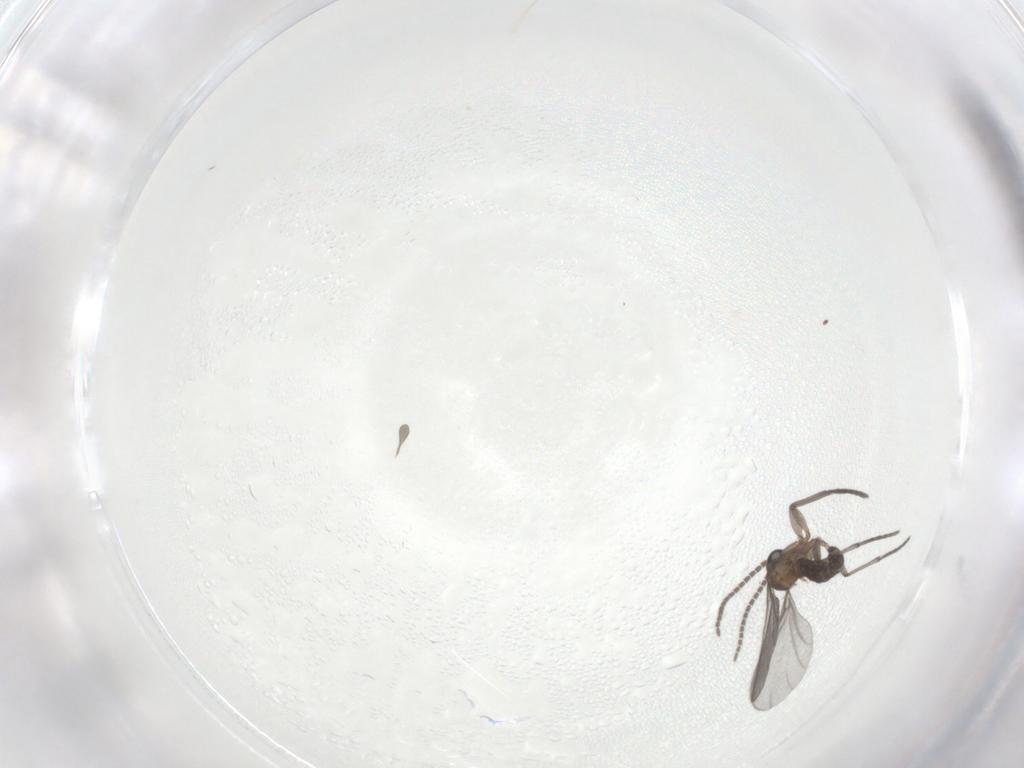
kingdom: Animalia
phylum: Arthropoda
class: Insecta
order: Diptera
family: Sciaridae
